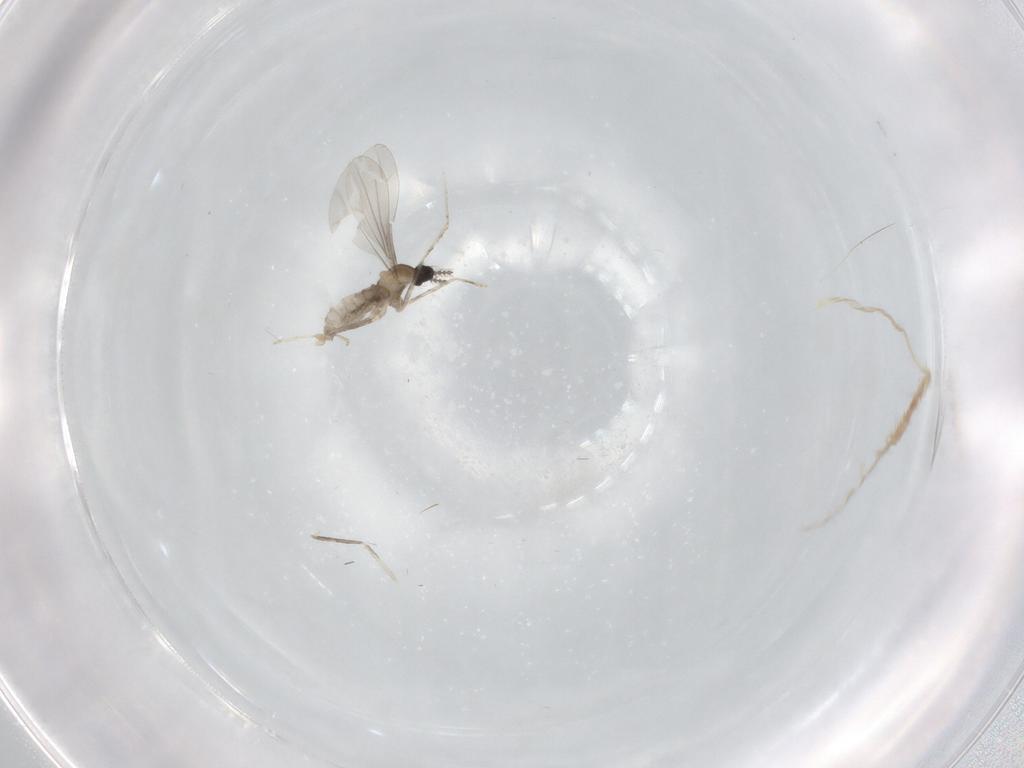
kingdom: Animalia
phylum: Arthropoda
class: Insecta
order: Diptera
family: Cecidomyiidae
